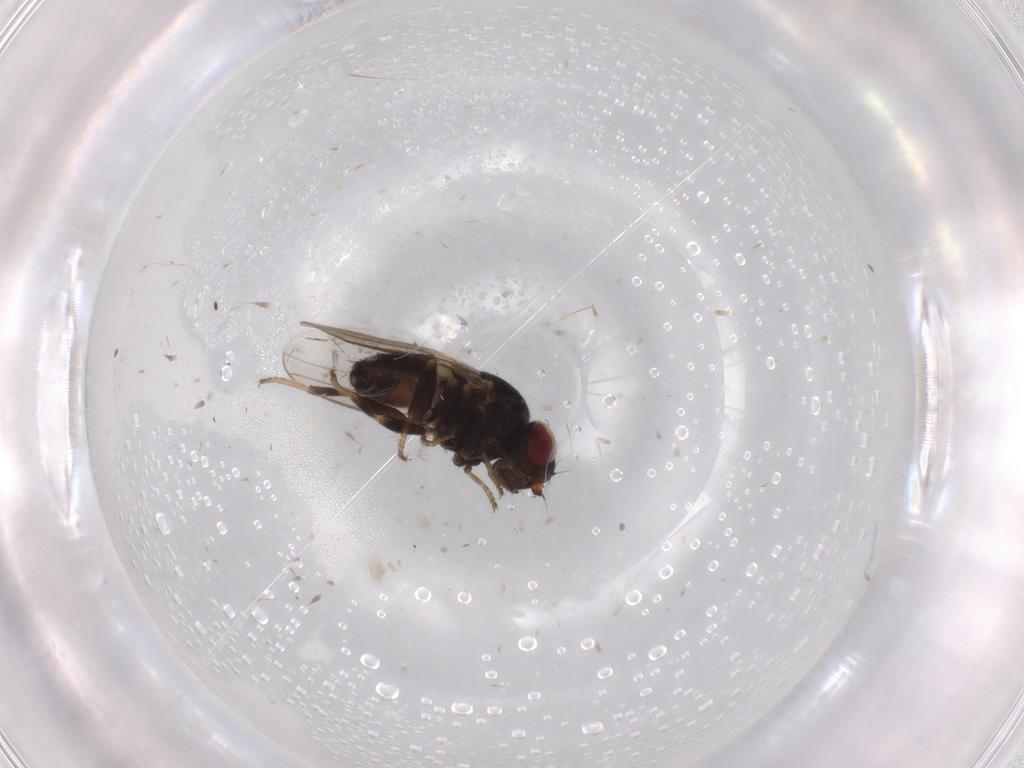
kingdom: Animalia
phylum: Arthropoda
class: Insecta
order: Diptera
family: Chloropidae
